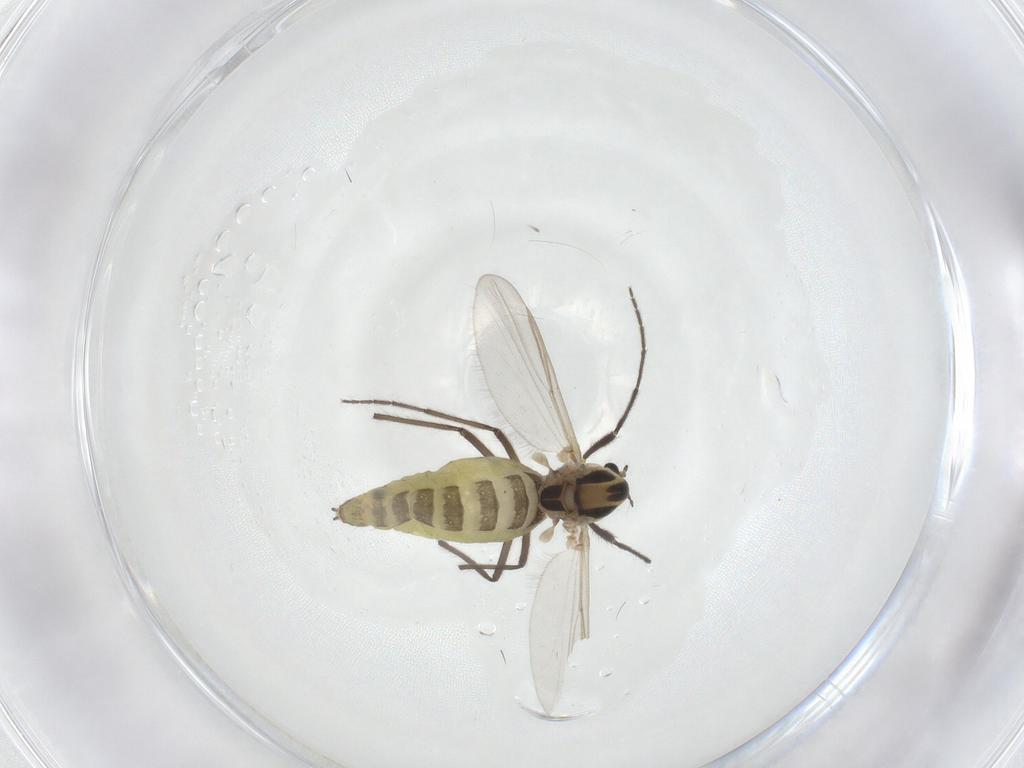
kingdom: Animalia
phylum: Arthropoda
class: Insecta
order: Diptera
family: Chironomidae
